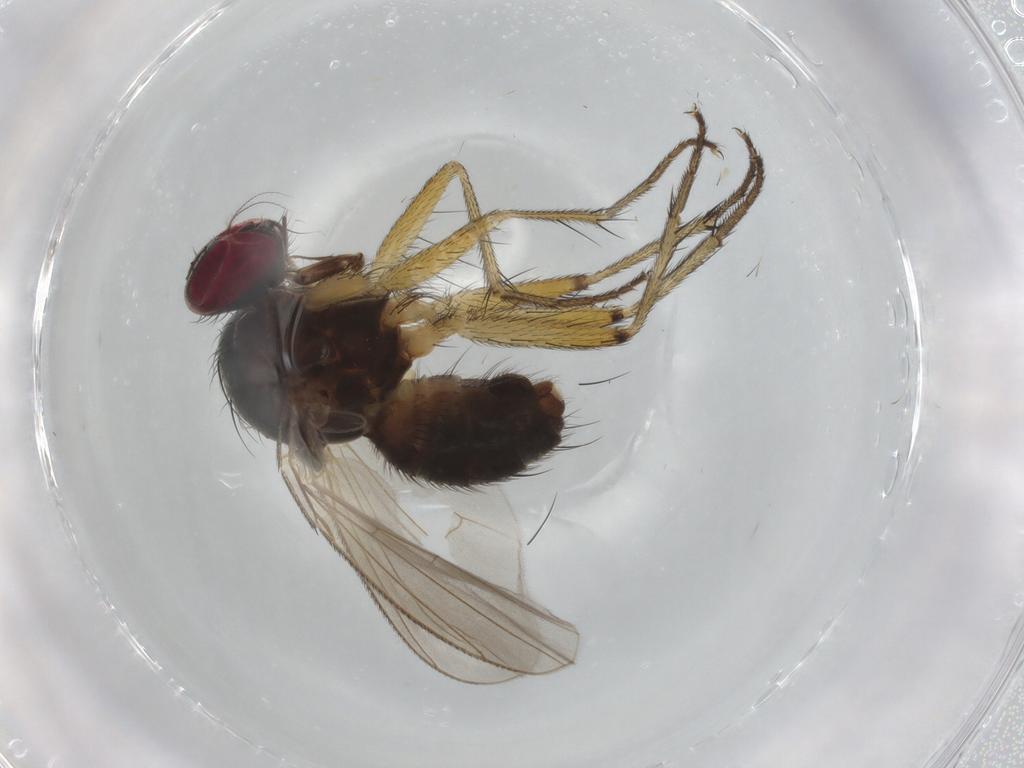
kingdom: Animalia
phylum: Arthropoda
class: Insecta
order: Diptera
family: Muscidae
